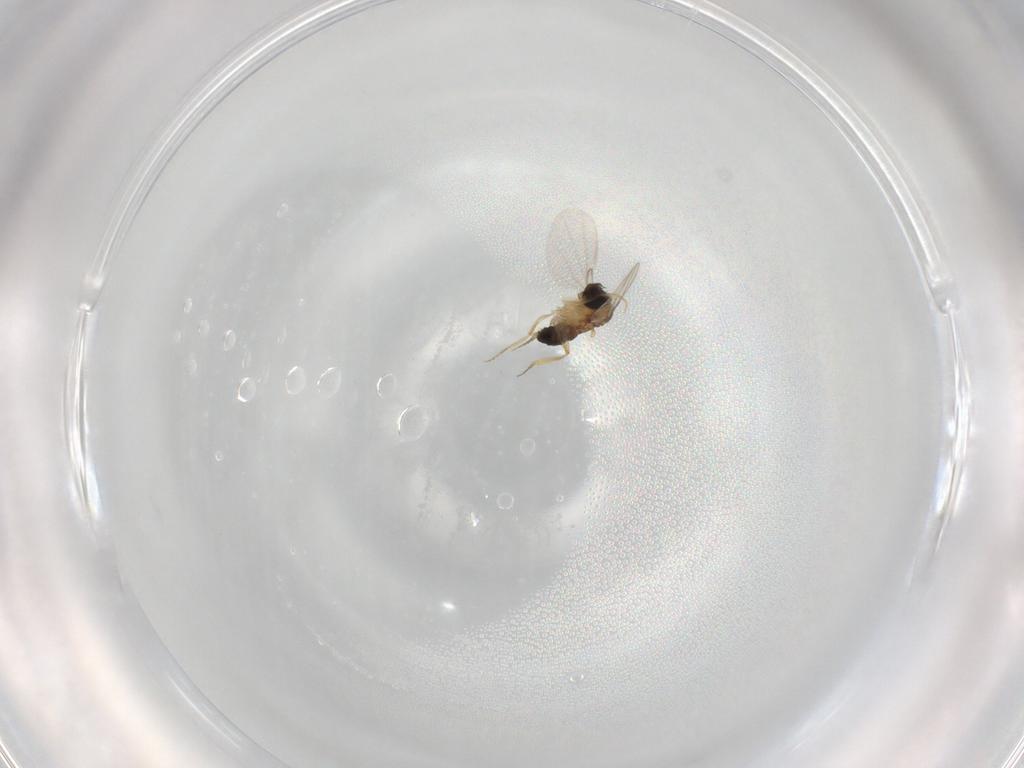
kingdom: Animalia
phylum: Arthropoda
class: Insecta
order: Diptera
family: Phoridae
